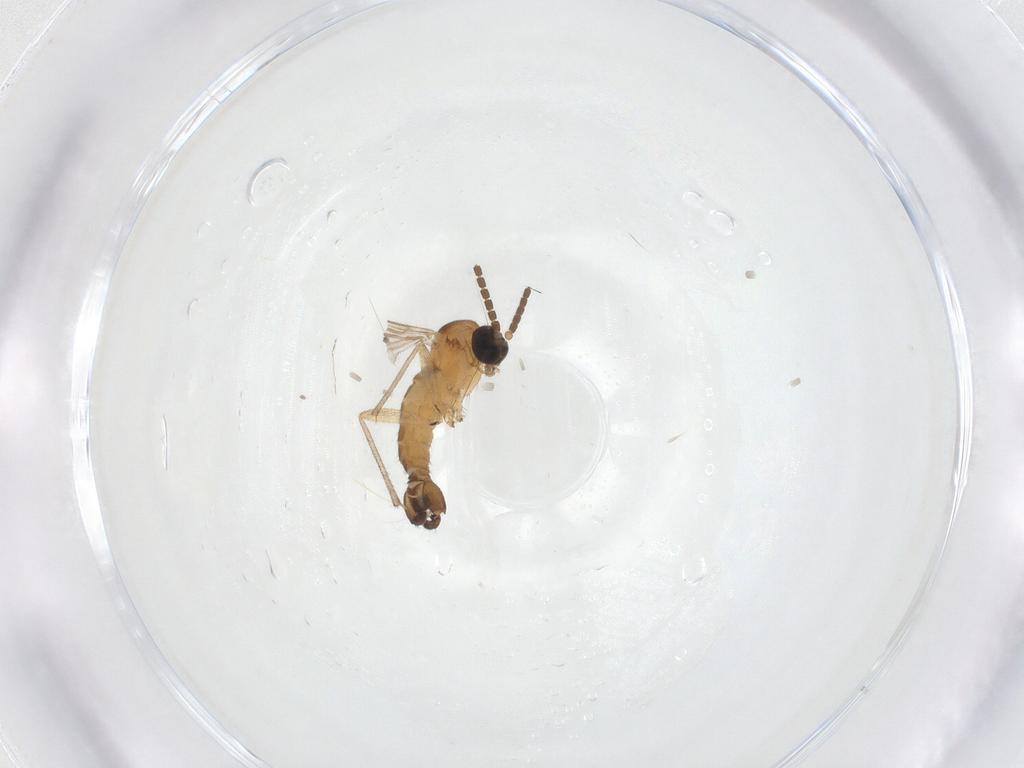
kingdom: Animalia
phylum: Arthropoda
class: Insecta
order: Diptera
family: Sciaridae
